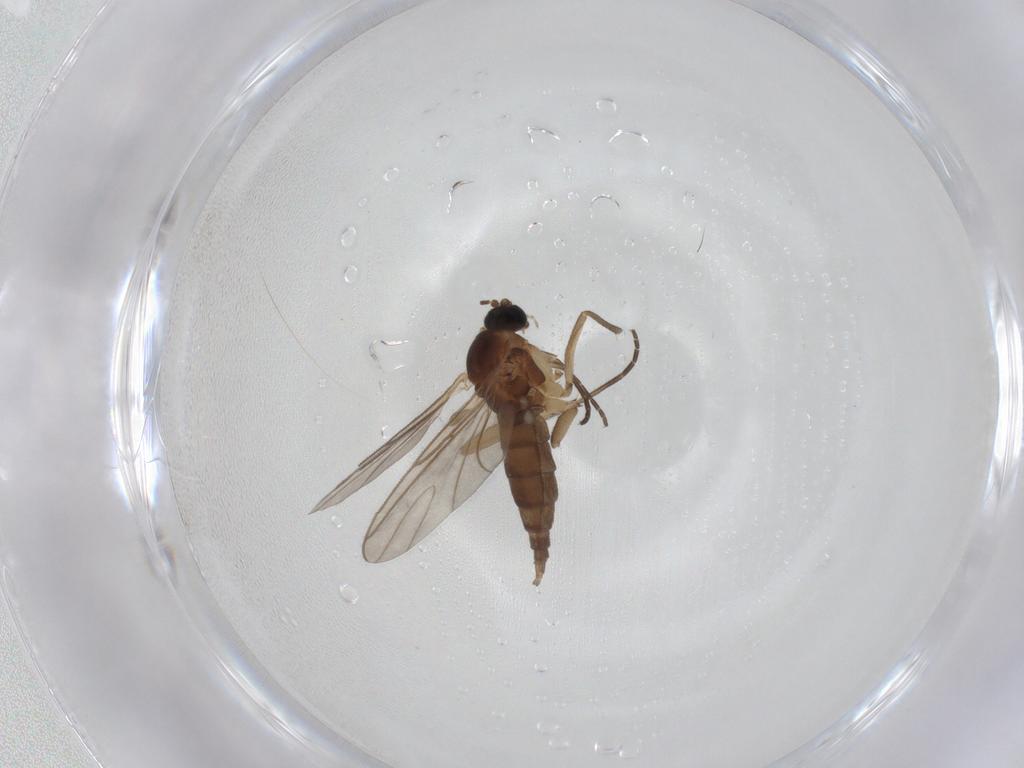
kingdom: Animalia
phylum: Arthropoda
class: Insecta
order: Diptera
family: Sciaridae
